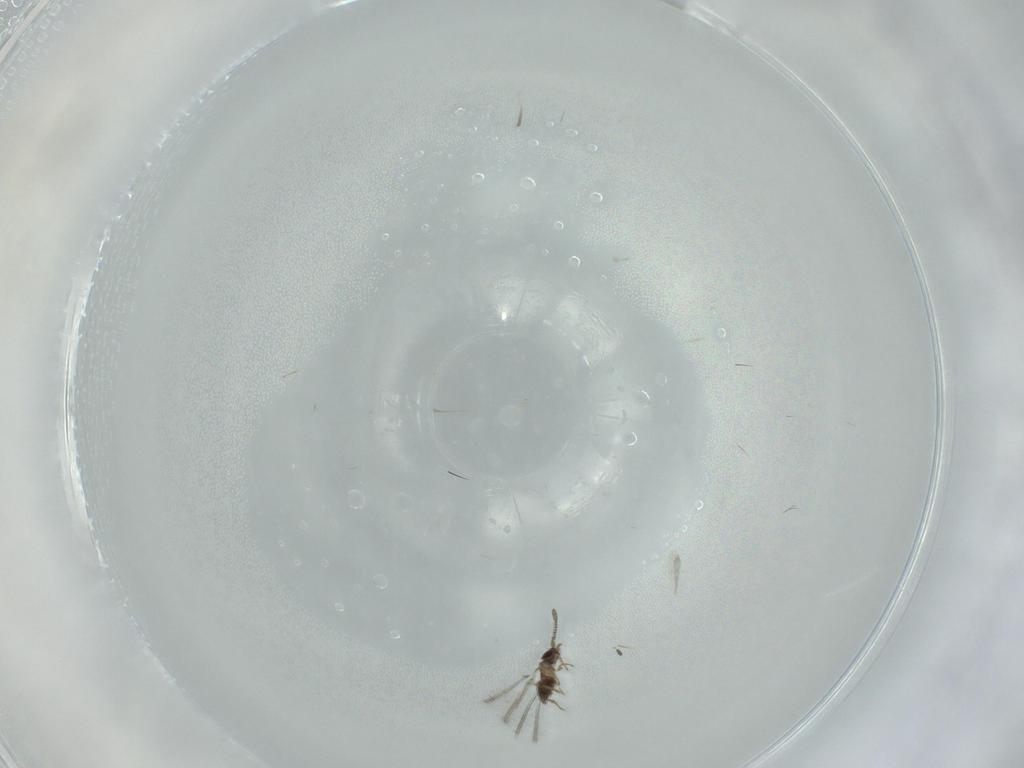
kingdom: Animalia
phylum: Arthropoda
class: Insecta
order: Hymenoptera
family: Mymaridae
